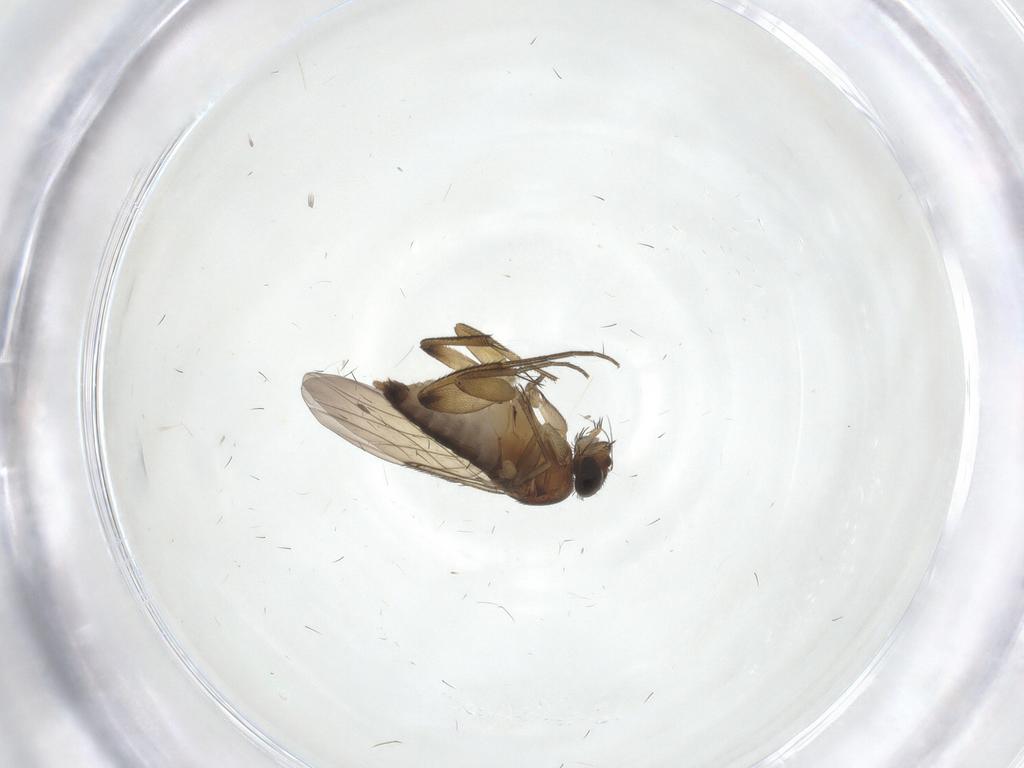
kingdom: Animalia
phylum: Arthropoda
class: Insecta
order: Diptera
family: Phoridae
